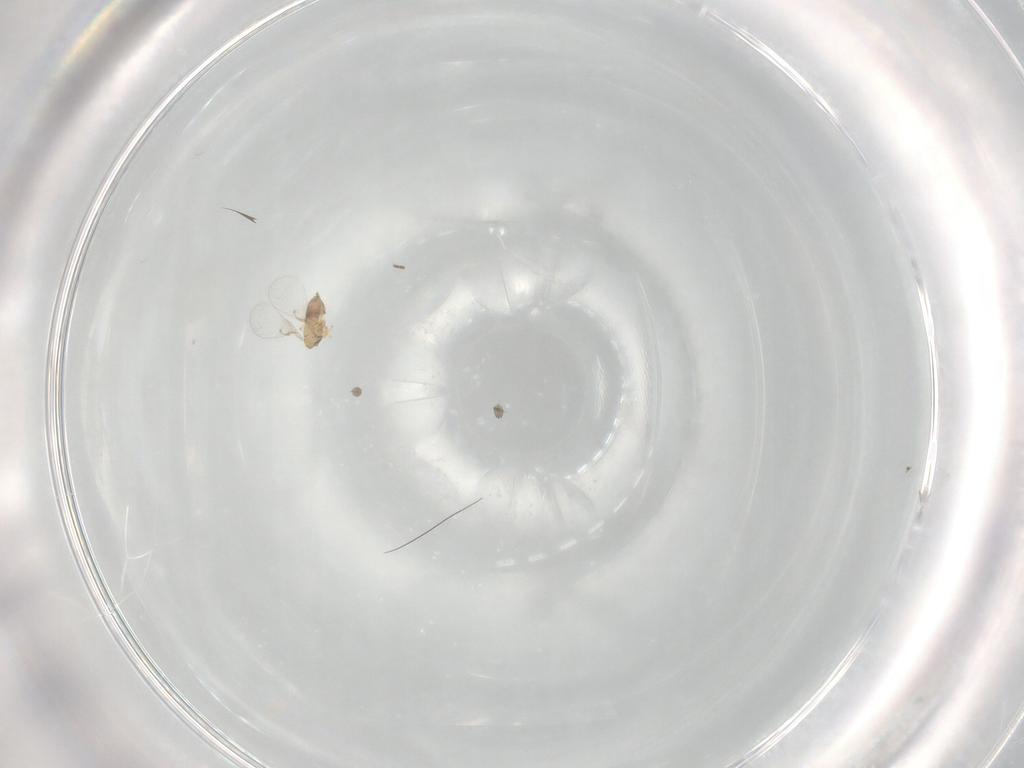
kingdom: Animalia
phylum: Arthropoda
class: Insecta
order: Hymenoptera
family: Trichogrammatidae
